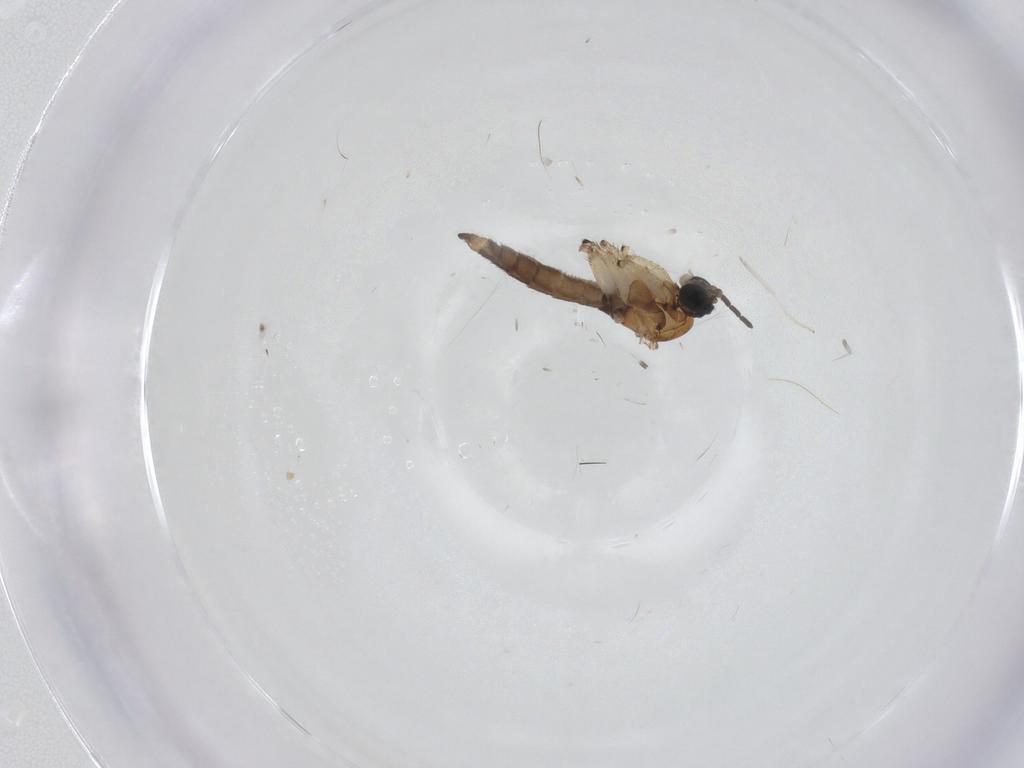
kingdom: Animalia
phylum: Arthropoda
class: Insecta
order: Diptera
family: Sciaridae
